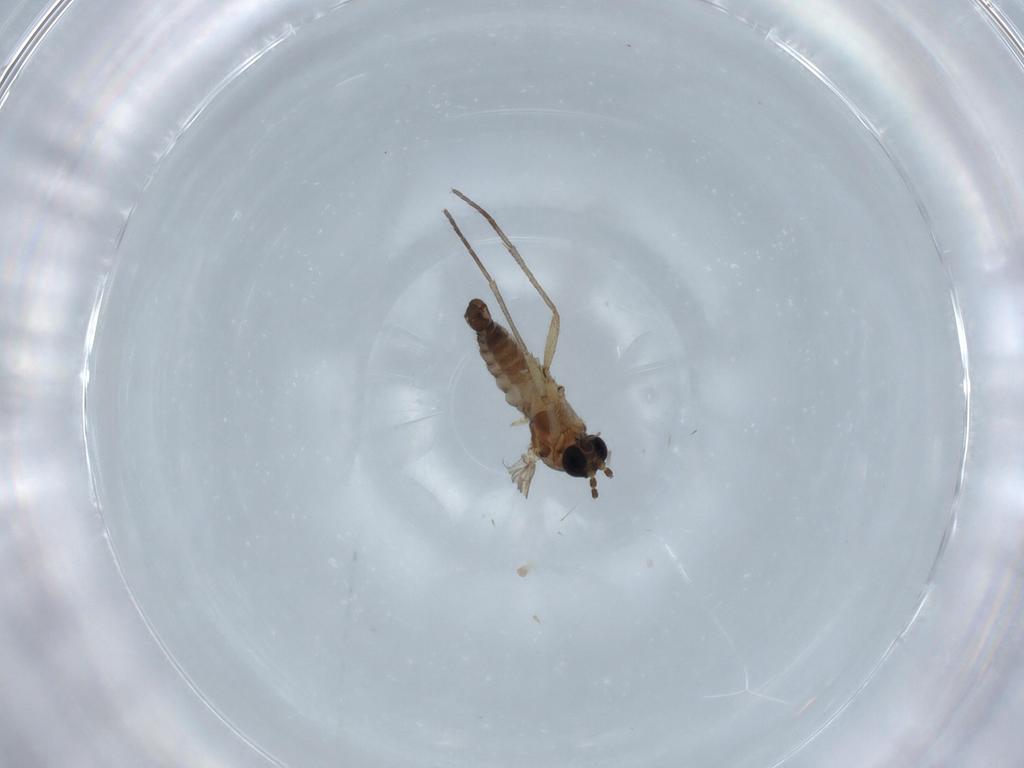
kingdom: Animalia
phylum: Arthropoda
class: Insecta
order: Diptera
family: Sciaridae
